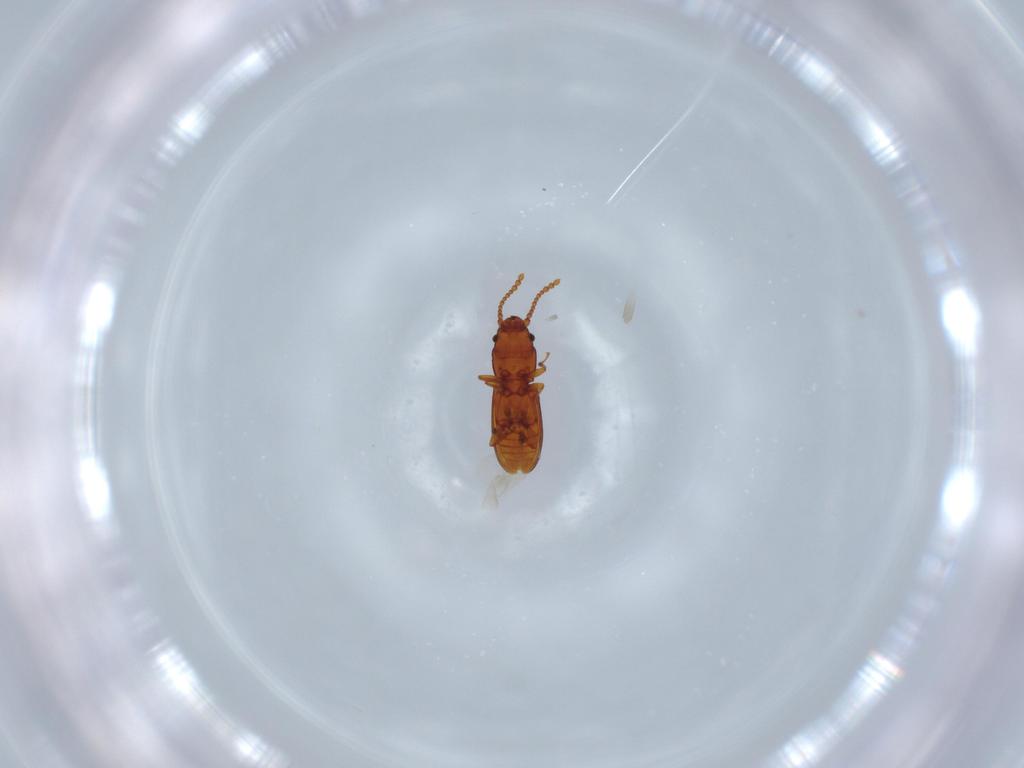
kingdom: Animalia
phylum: Arthropoda
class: Insecta
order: Coleoptera
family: Laemophloeidae
